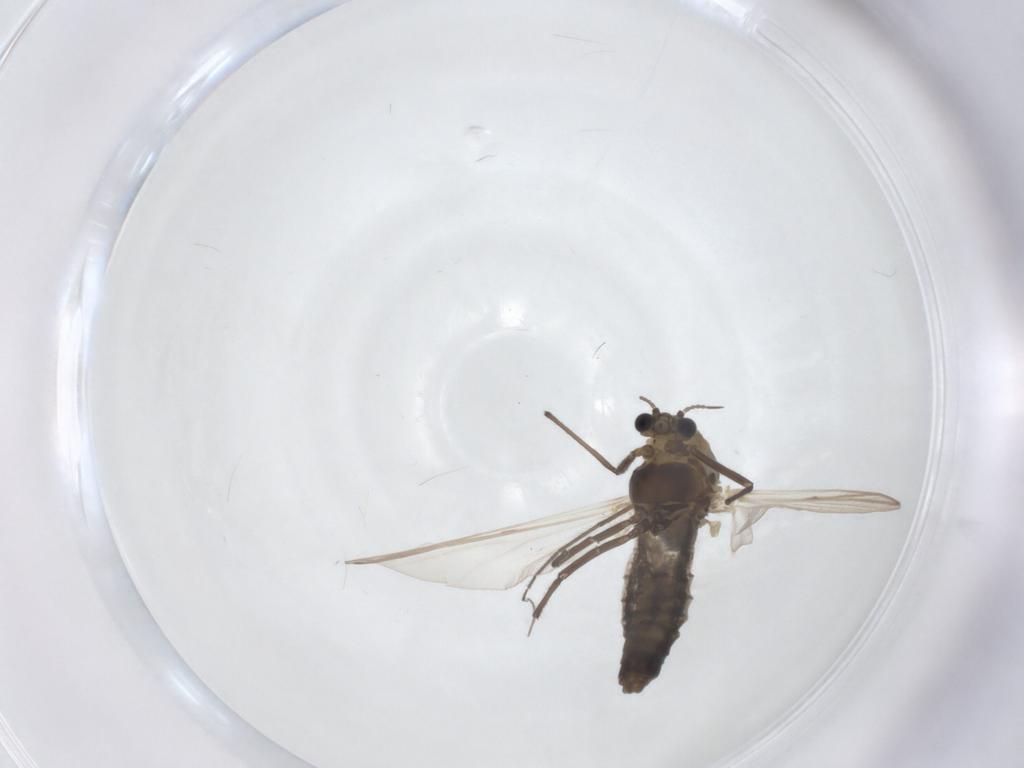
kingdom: Animalia
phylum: Arthropoda
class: Insecta
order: Diptera
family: Chironomidae
